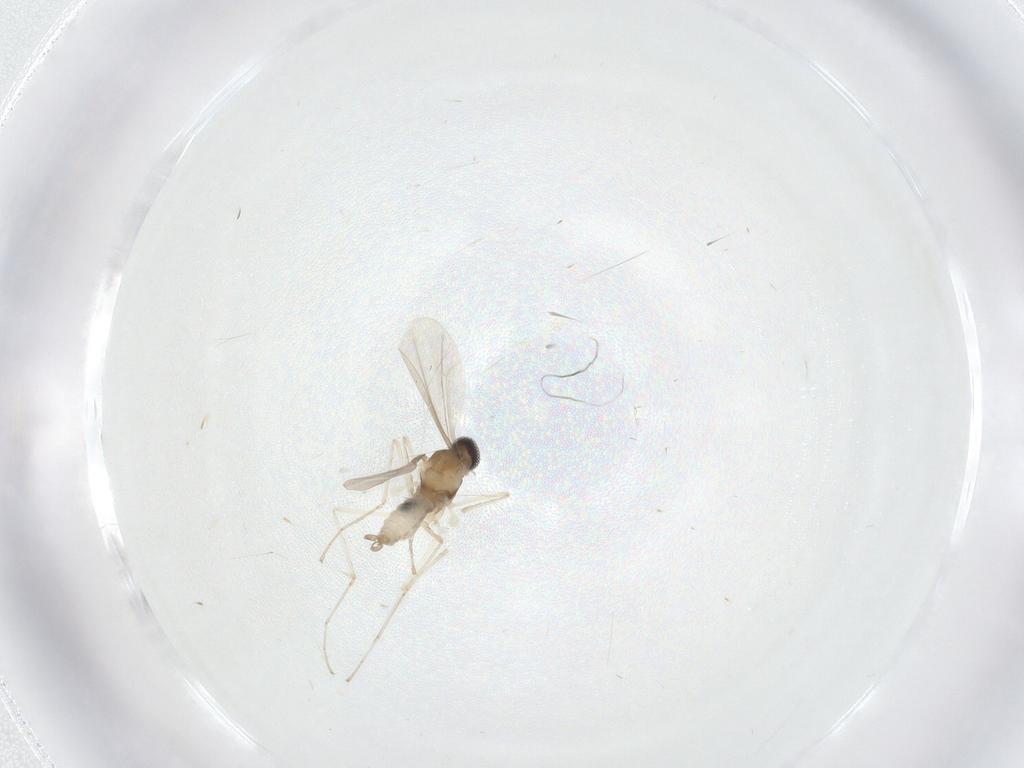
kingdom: Animalia
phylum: Arthropoda
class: Insecta
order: Diptera
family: Cecidomyiidae
